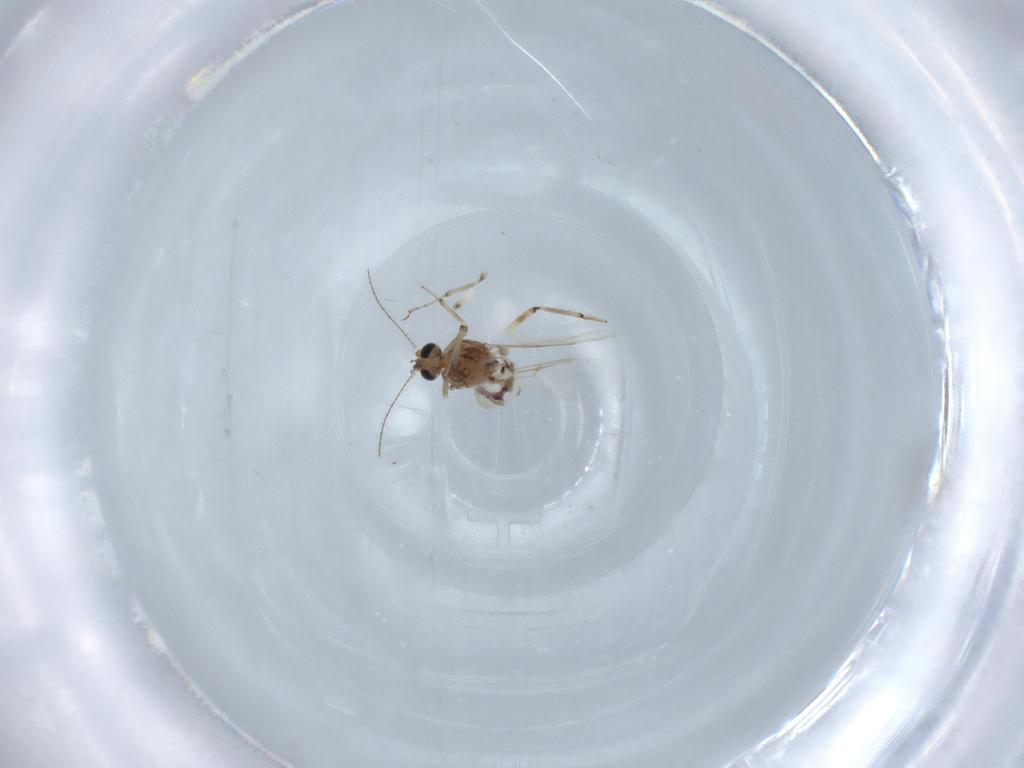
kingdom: Animalia
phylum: Arthropoda
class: Insecta
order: Diptera
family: Ceratopogonidae
